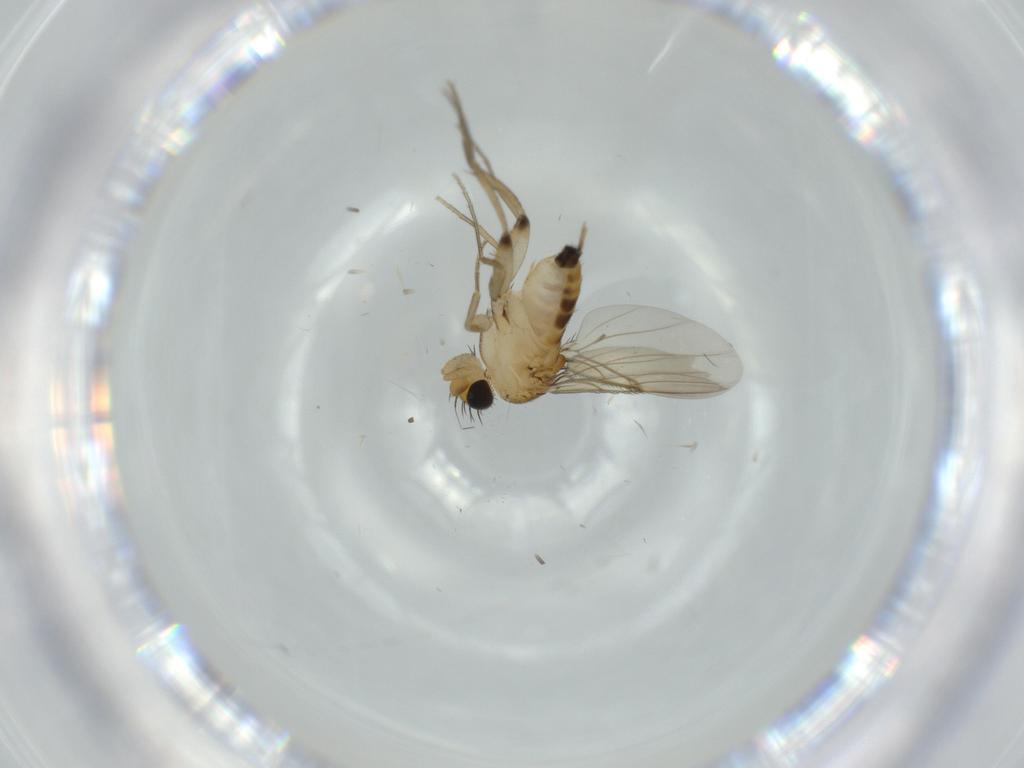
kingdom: Animalia
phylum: Arthropoda
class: Insecta
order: Diptera
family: Phoridae
